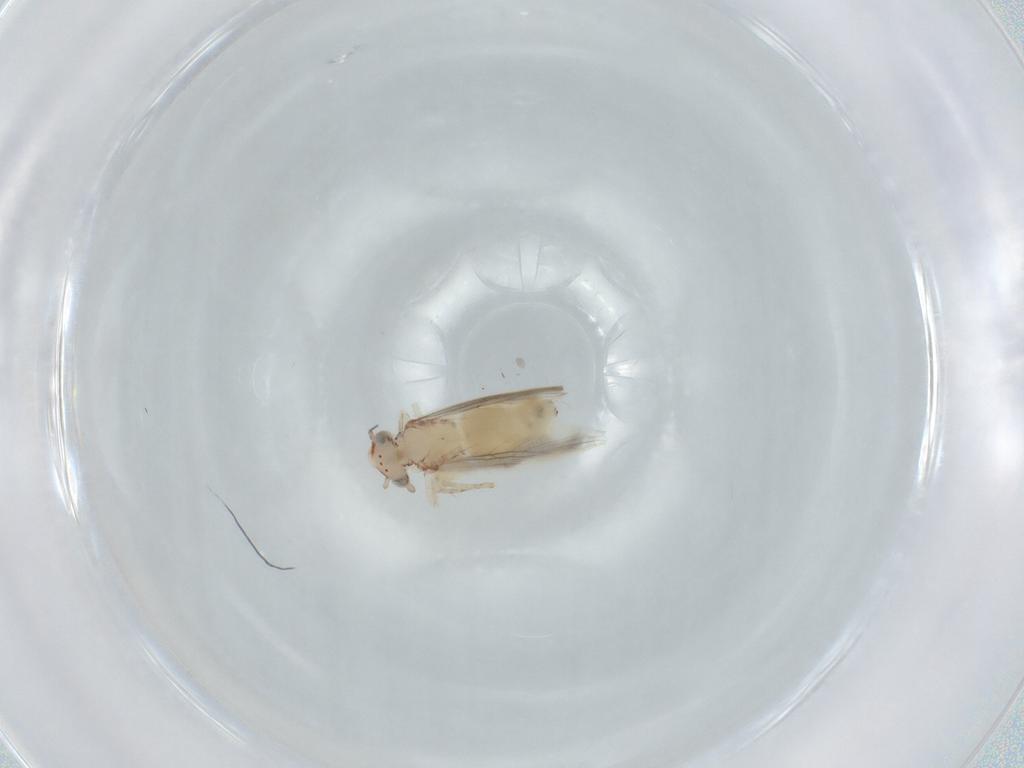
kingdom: Animalia
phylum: Arthropoda
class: Insecta
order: Psocodea
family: Lepidopsocidae
